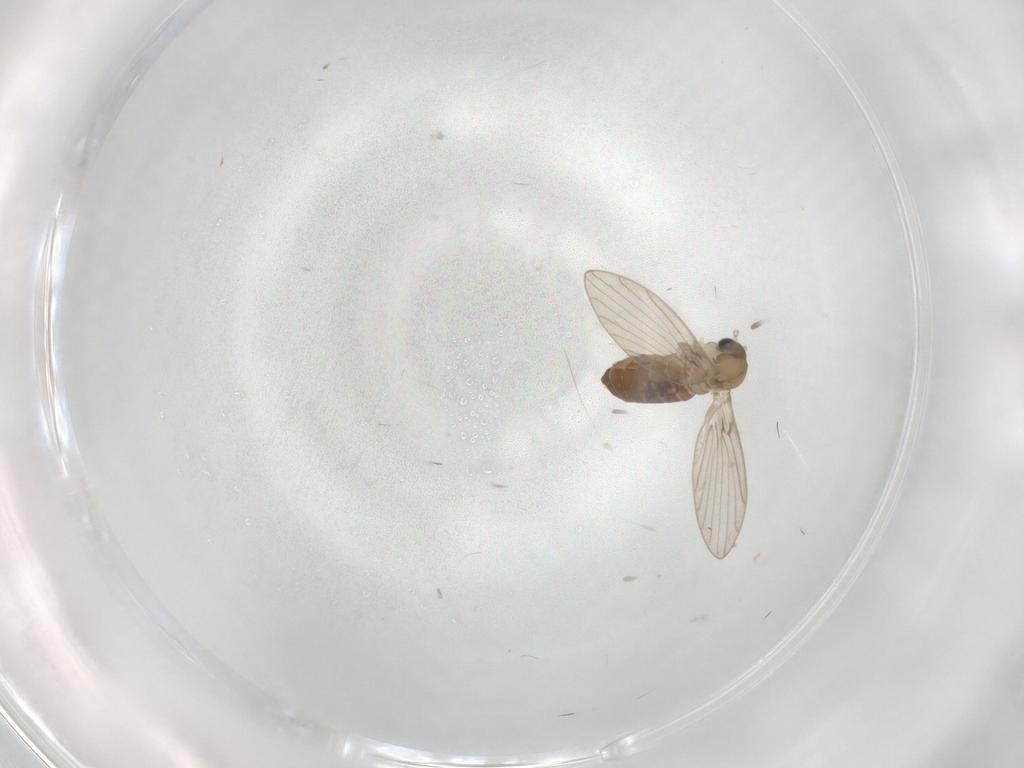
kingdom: Animalia
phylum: Arthropoda
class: Insecta
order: Diptera
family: Psychodidae
